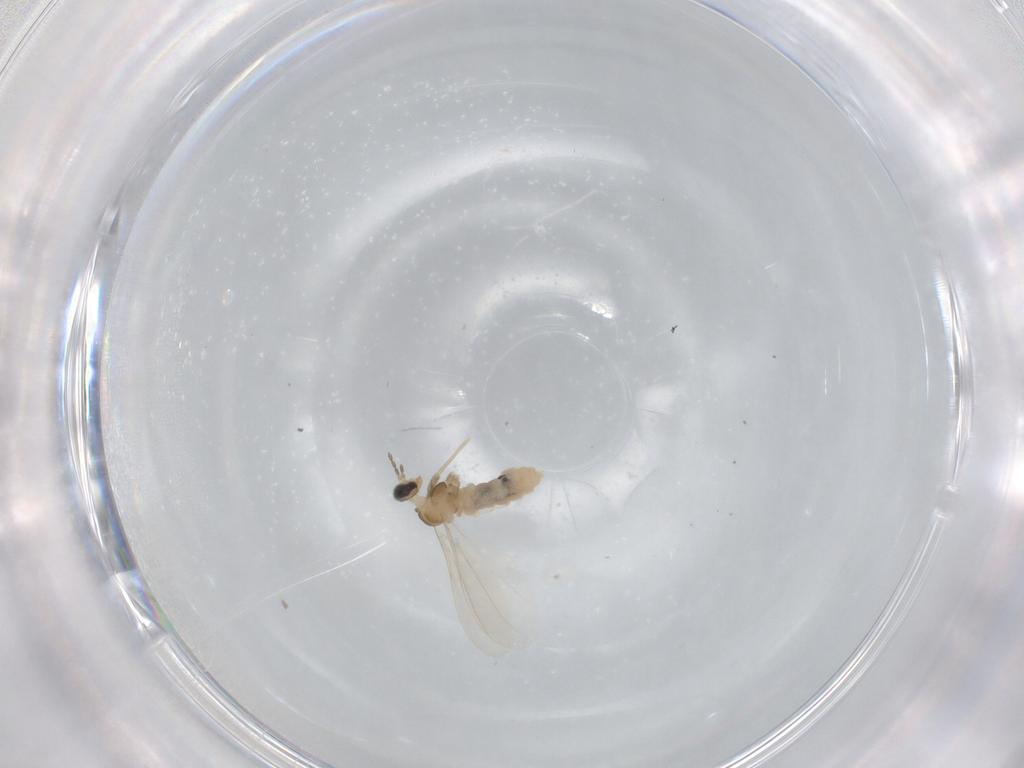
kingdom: Animalia
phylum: Arthropoda
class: Insecta
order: Diptera
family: Cecidomyiidae
